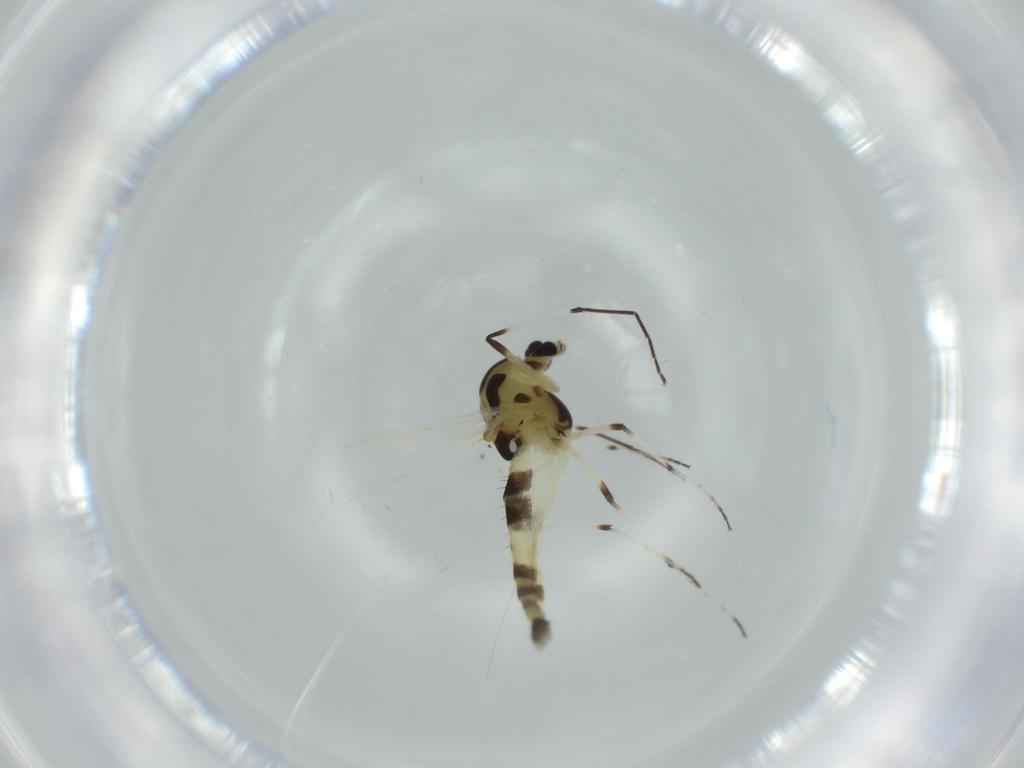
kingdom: Animalia
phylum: Arthropoda
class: Insecta
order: Diptera
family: Chironomidae
